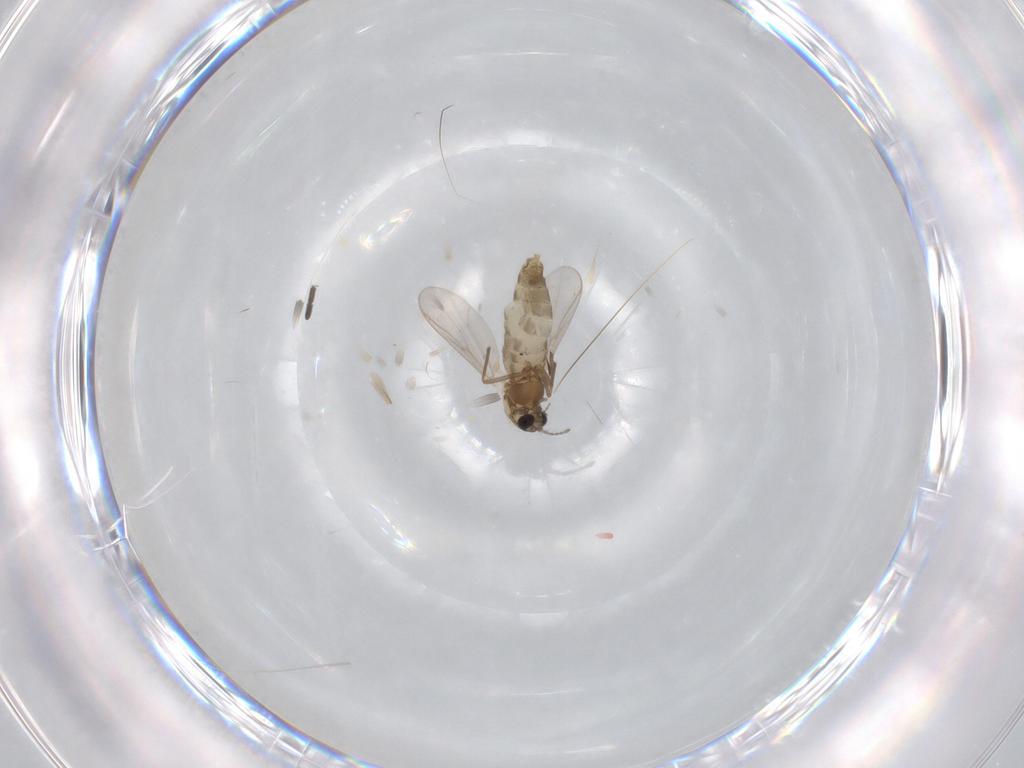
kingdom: Animalia
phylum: Arthropoda
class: Insecta
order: Diptera
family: Chironomidae
